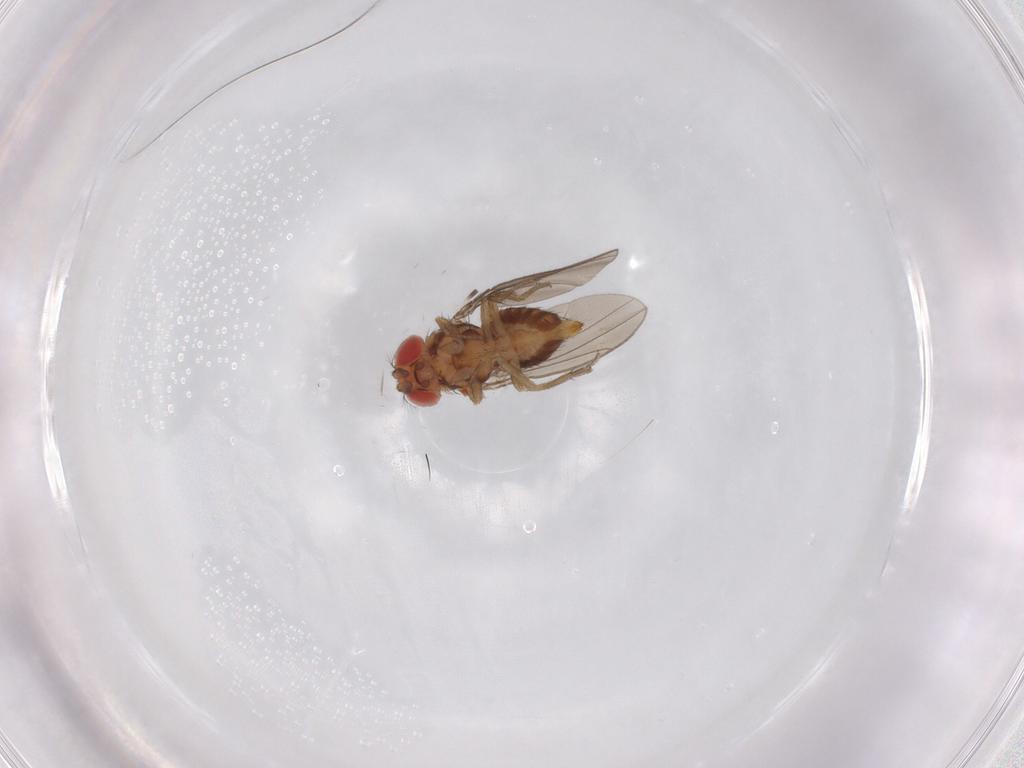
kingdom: Animalia
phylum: Arthropoda
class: Insecta
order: Diptera
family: Drosophilidae
